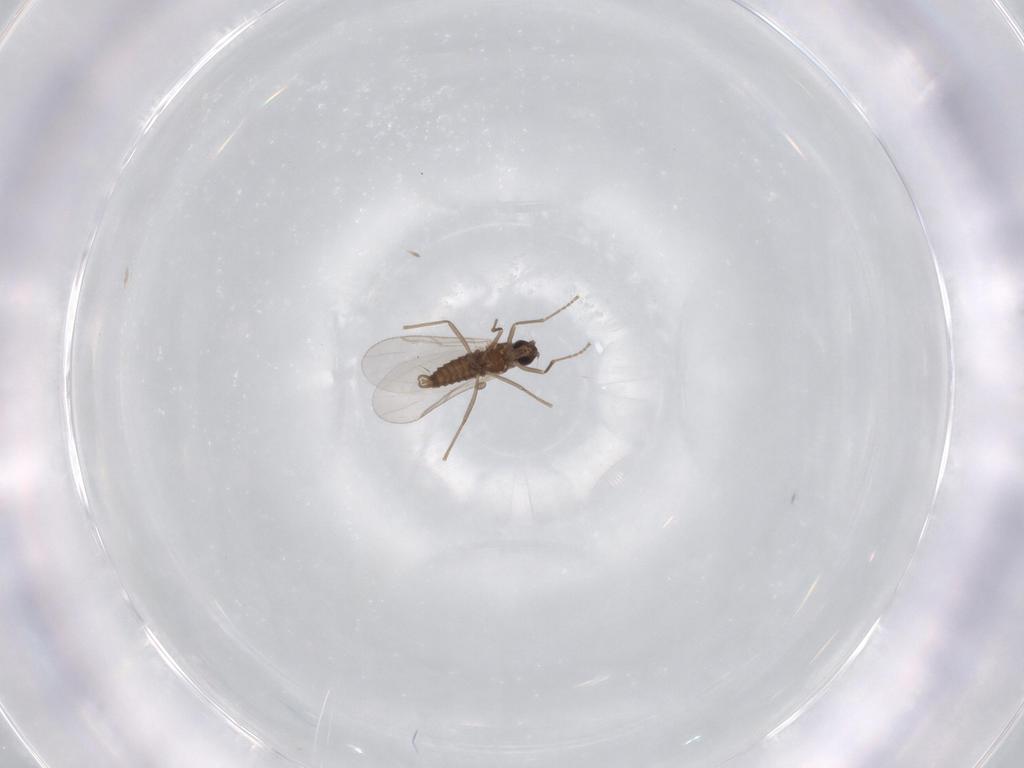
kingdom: Animalia
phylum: Arthropoda
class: Insecta
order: Diptera
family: Cecidomyiidae
